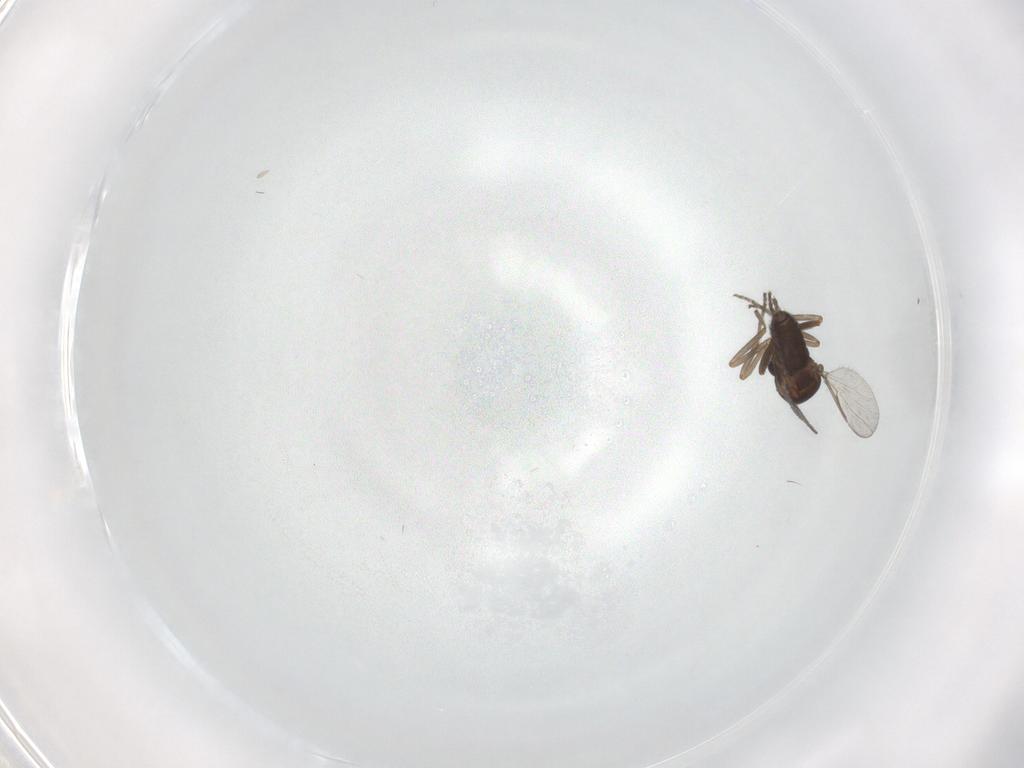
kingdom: Animalia
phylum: Arthropoda
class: Insecta
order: Diptera
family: Ceratopogonidae
